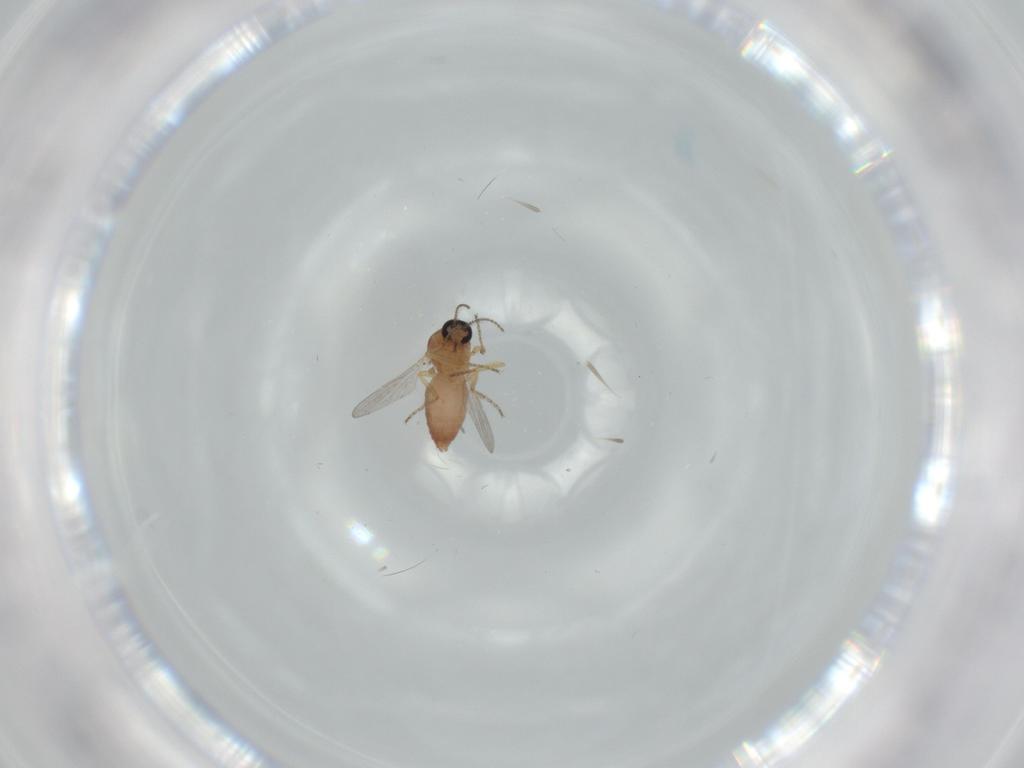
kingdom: Animalia
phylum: Arthropoda
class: Insecta
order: Diptera
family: Ceratopogonidae
